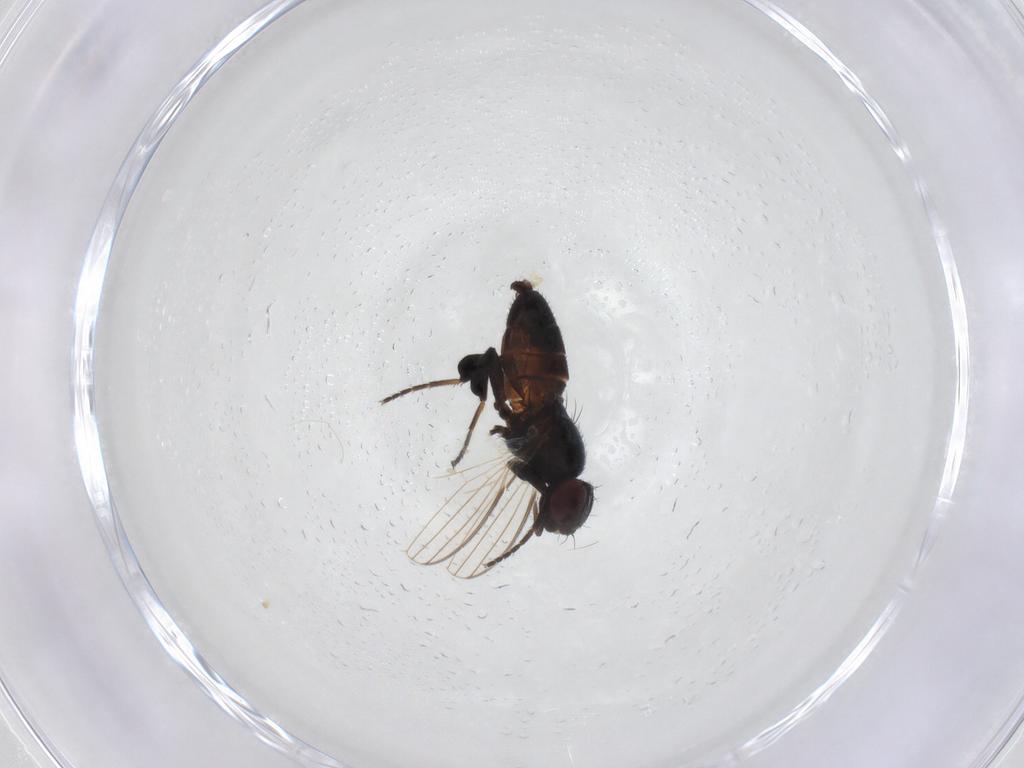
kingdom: Animalia
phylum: Arthropoda
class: Insecta
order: Diptera
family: Milichiidae
